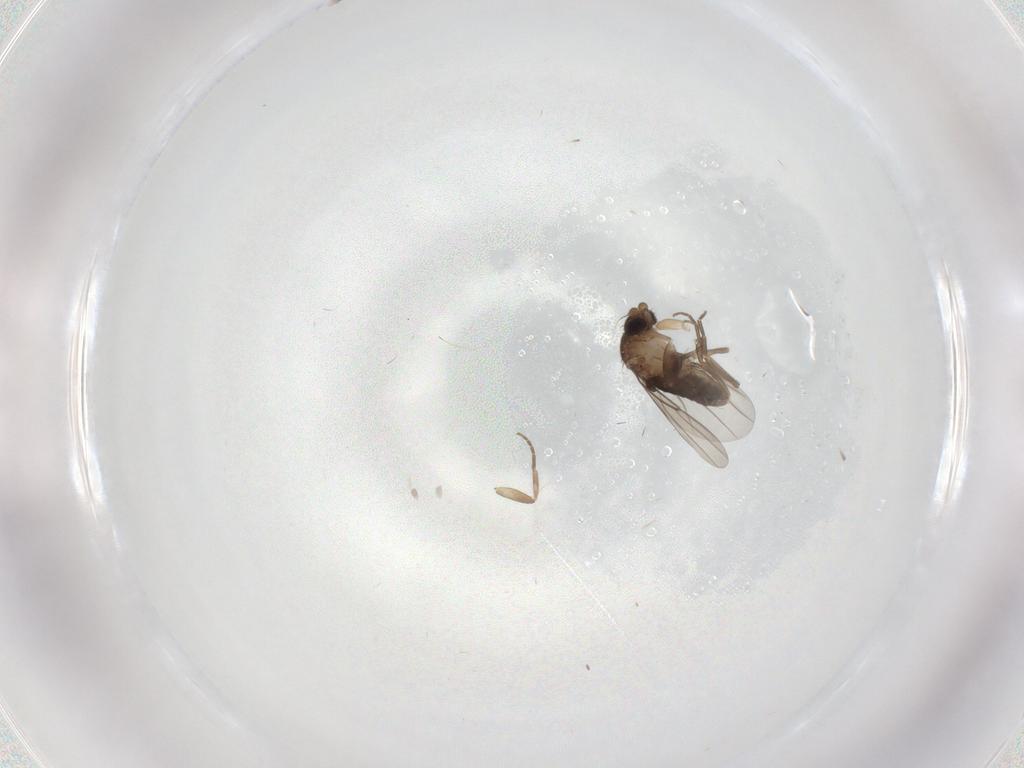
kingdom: Animalia
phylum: Arthropoda
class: Insecta
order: Diptera
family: Phoridae
